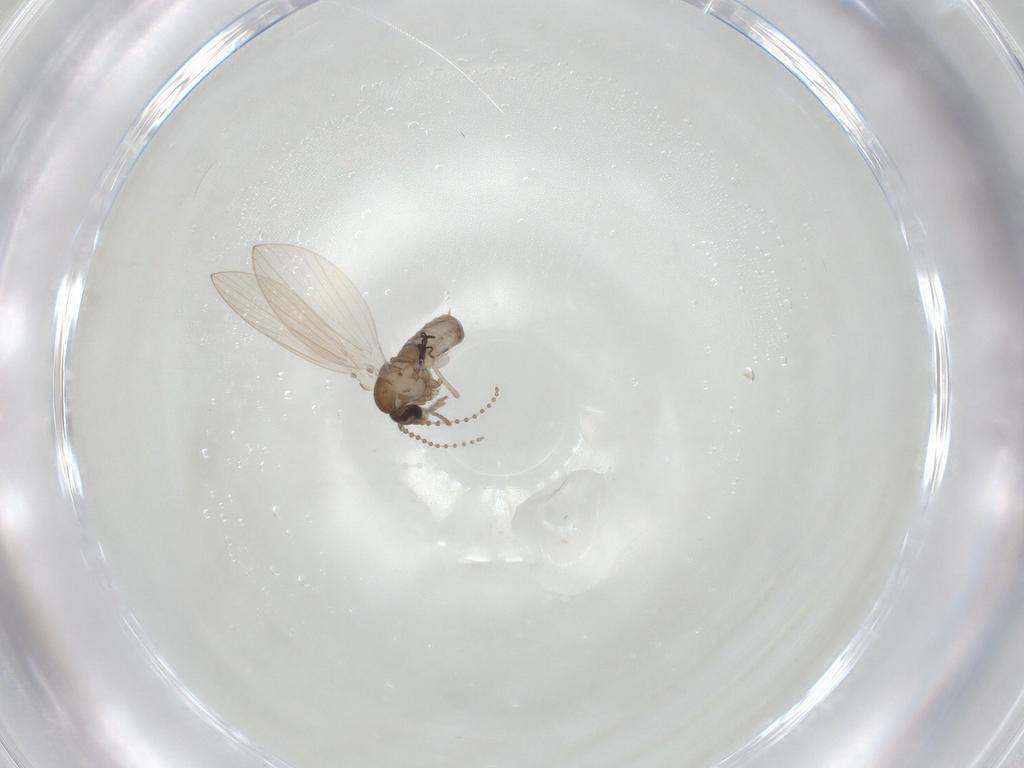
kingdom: Animalia
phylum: Arthropoda
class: Insecta
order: Diptera
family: Psychodidae
